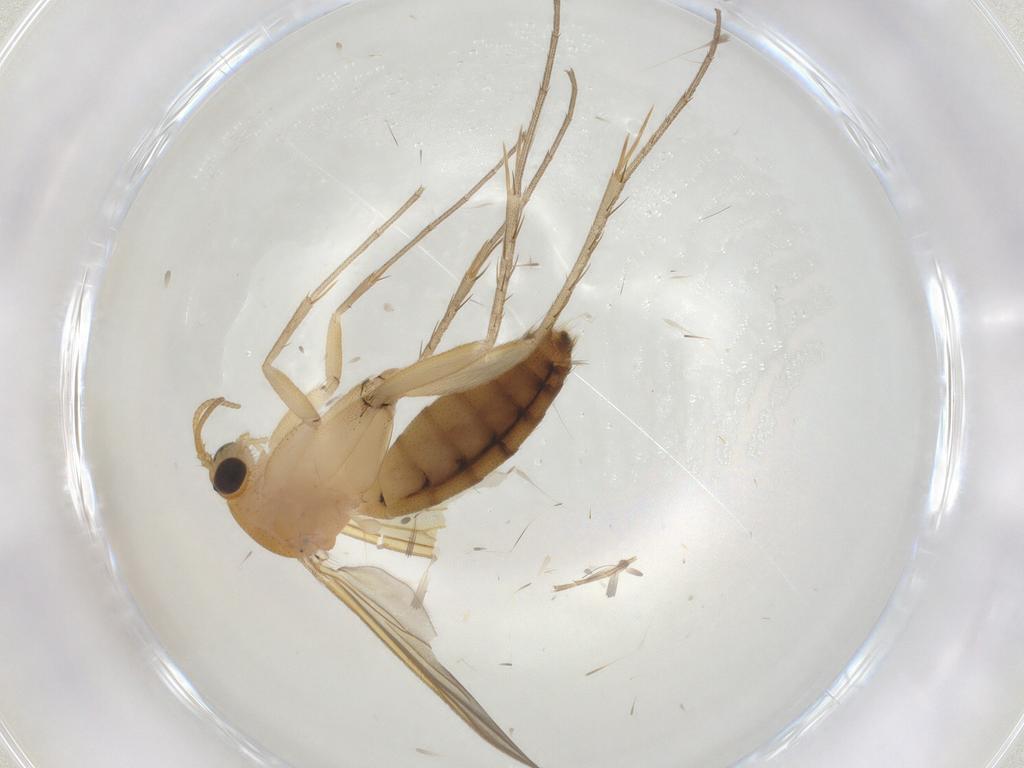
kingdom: Animalia
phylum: Arthropoda
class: Insecta
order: Diptera
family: Mycetophilidae
